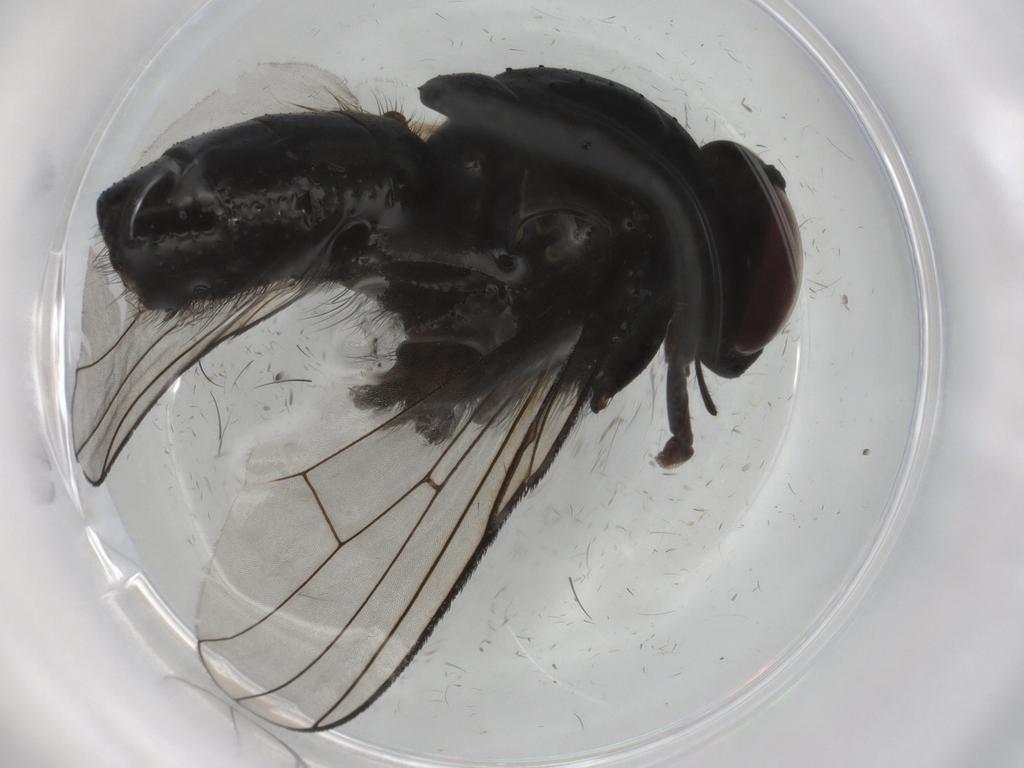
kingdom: Animalia
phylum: Arthropoda
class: Insecta
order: Diptera
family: Muscidae
